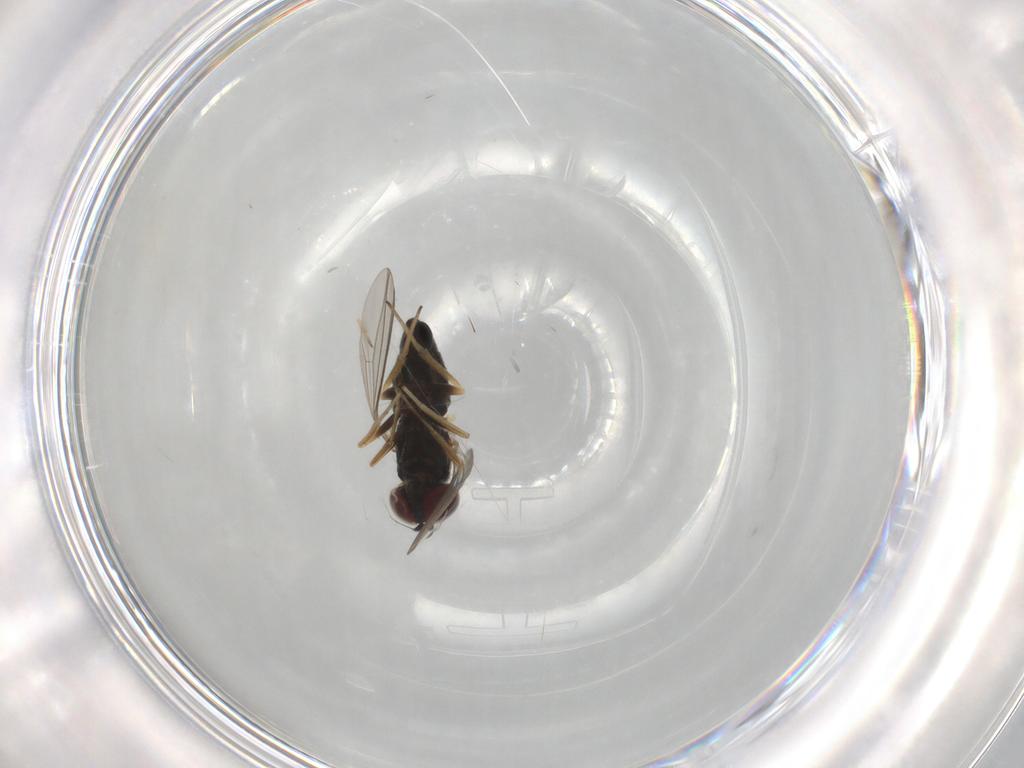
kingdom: Animalia
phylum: Arthropoda
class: Insecta
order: Diptera
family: Dolichopodidae
